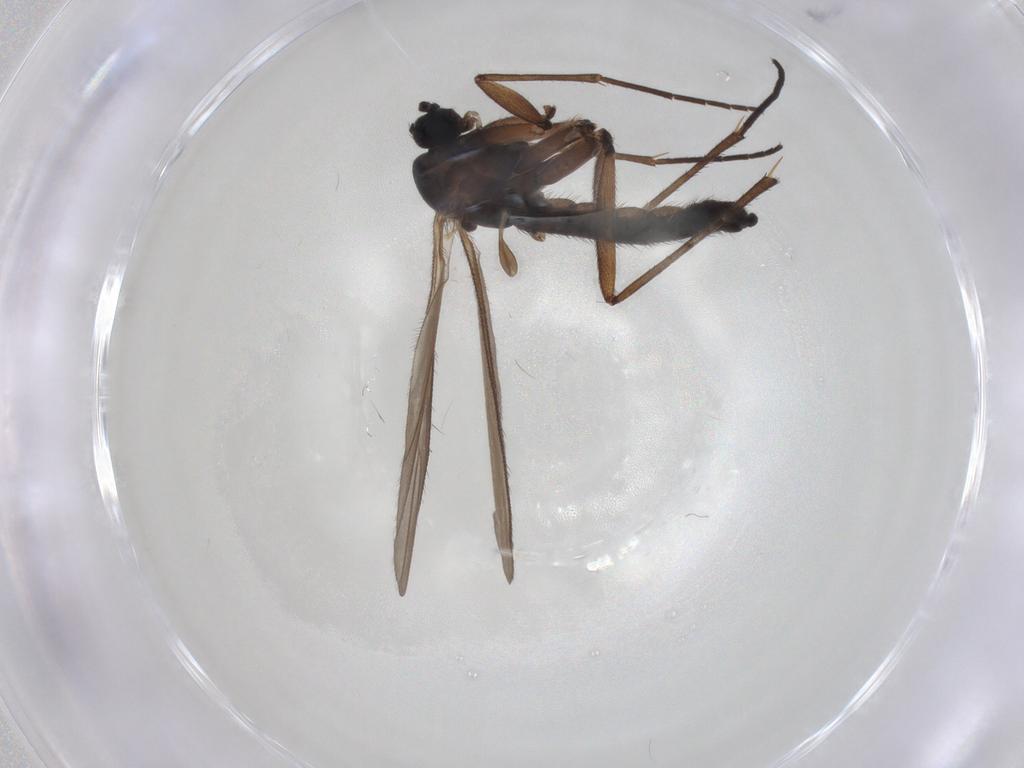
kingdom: Animalia
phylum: Arthropoda
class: Insecta
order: Diptera
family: Sciaridae
